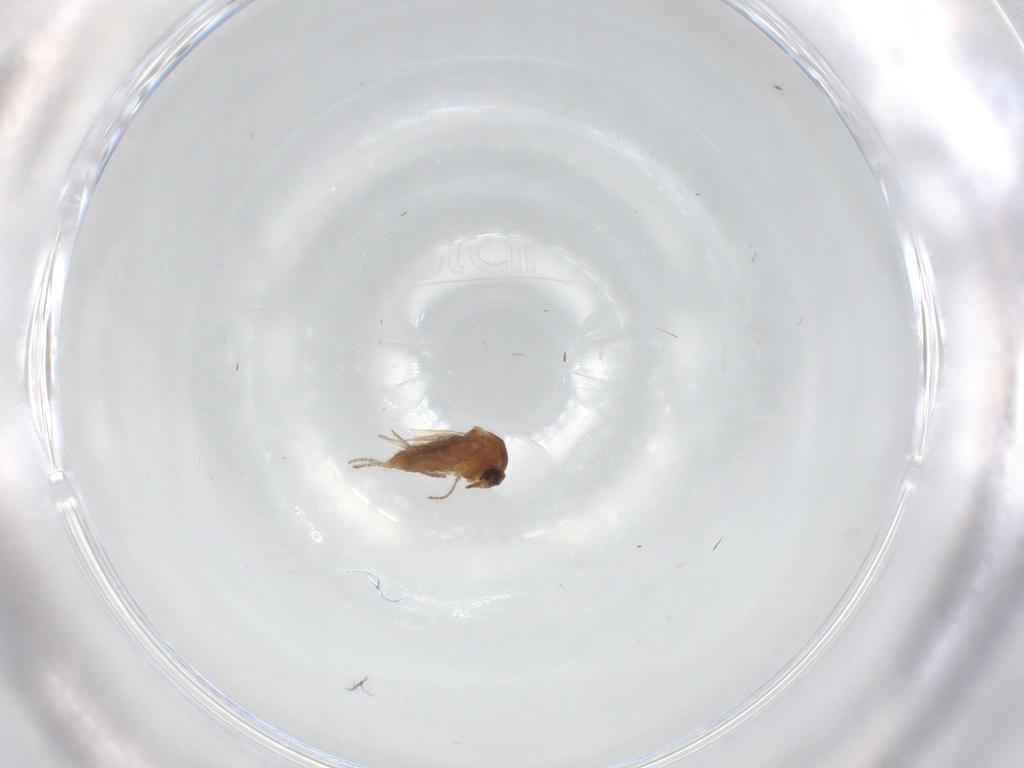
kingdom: Animalia
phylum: Arthropoda
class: Insecta
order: Diptera
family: Ceratopogonidae
